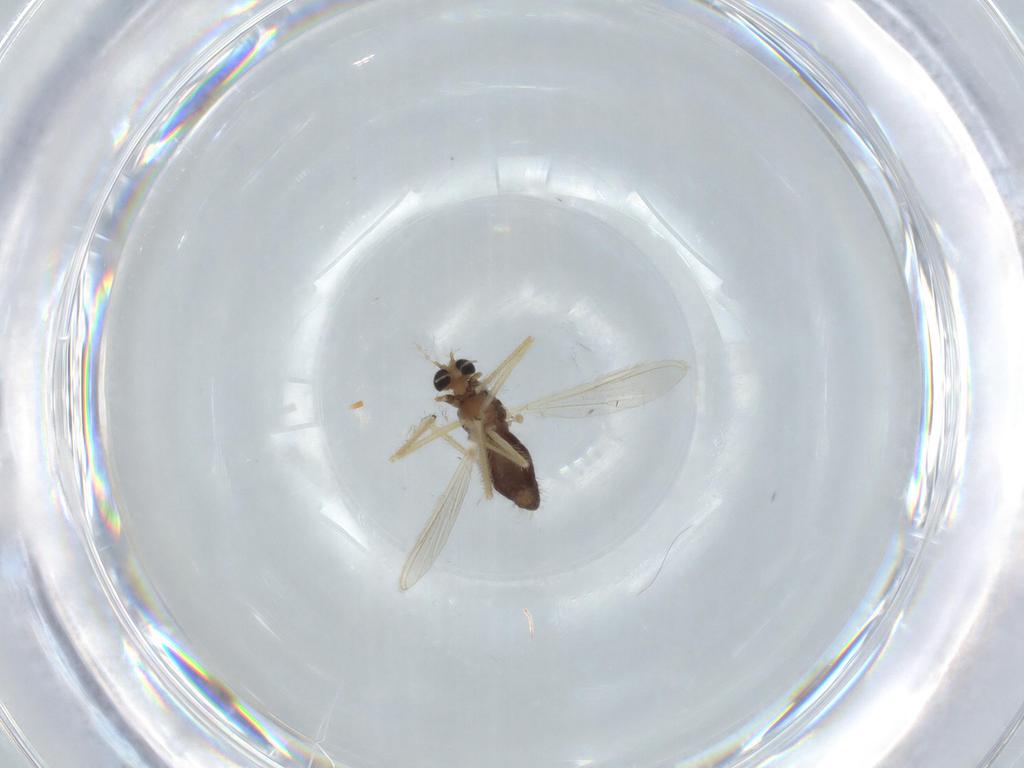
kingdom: Animalia
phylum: Arthropoda
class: Insecta
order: Diptera
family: Chironomidae
